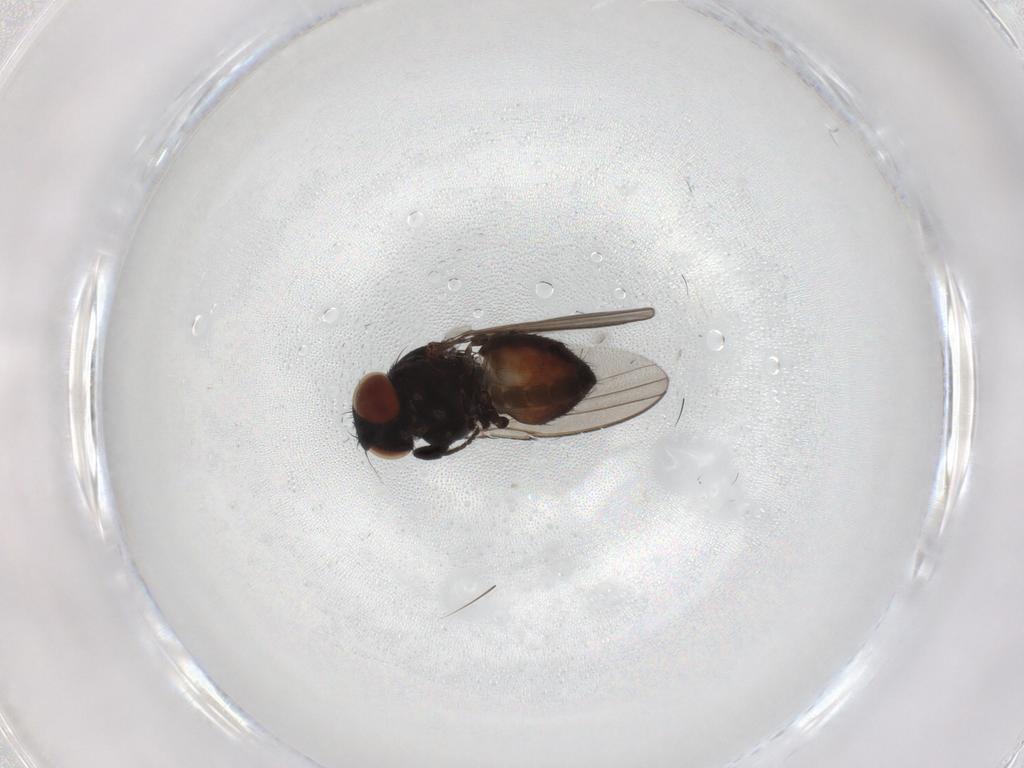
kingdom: Animalia
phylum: Arthropoda
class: Insecta
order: Diptera
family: Milichiidae
